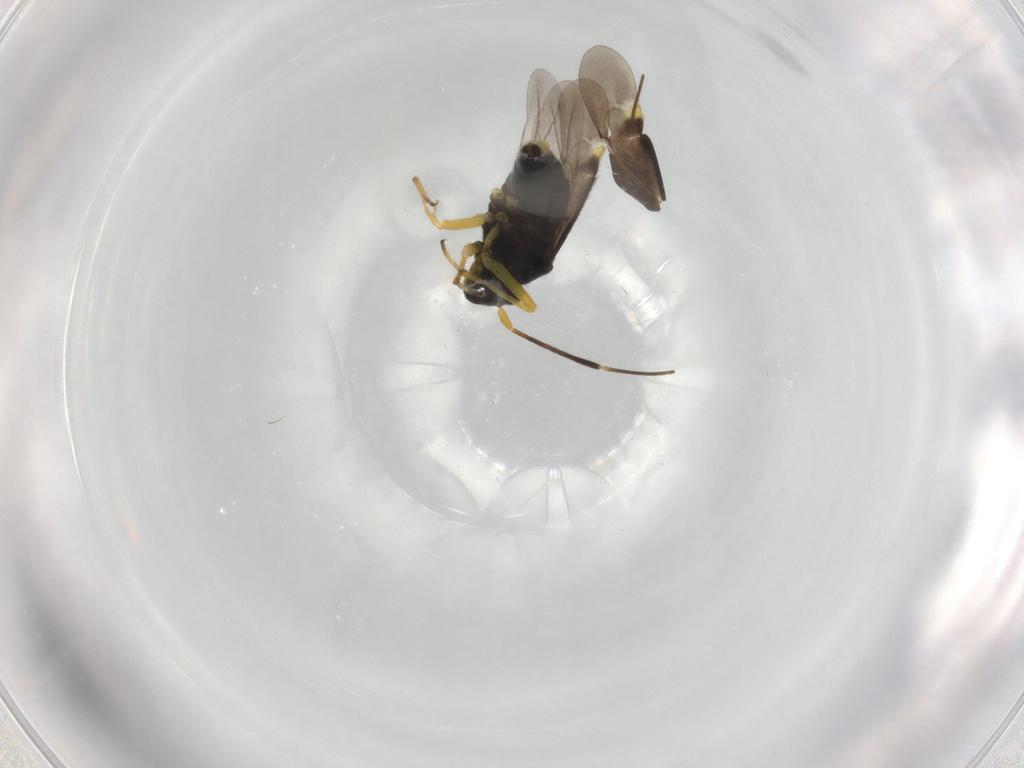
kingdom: Animalia
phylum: Arthropoda
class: Insecta
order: Hemiptera
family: Miridae
